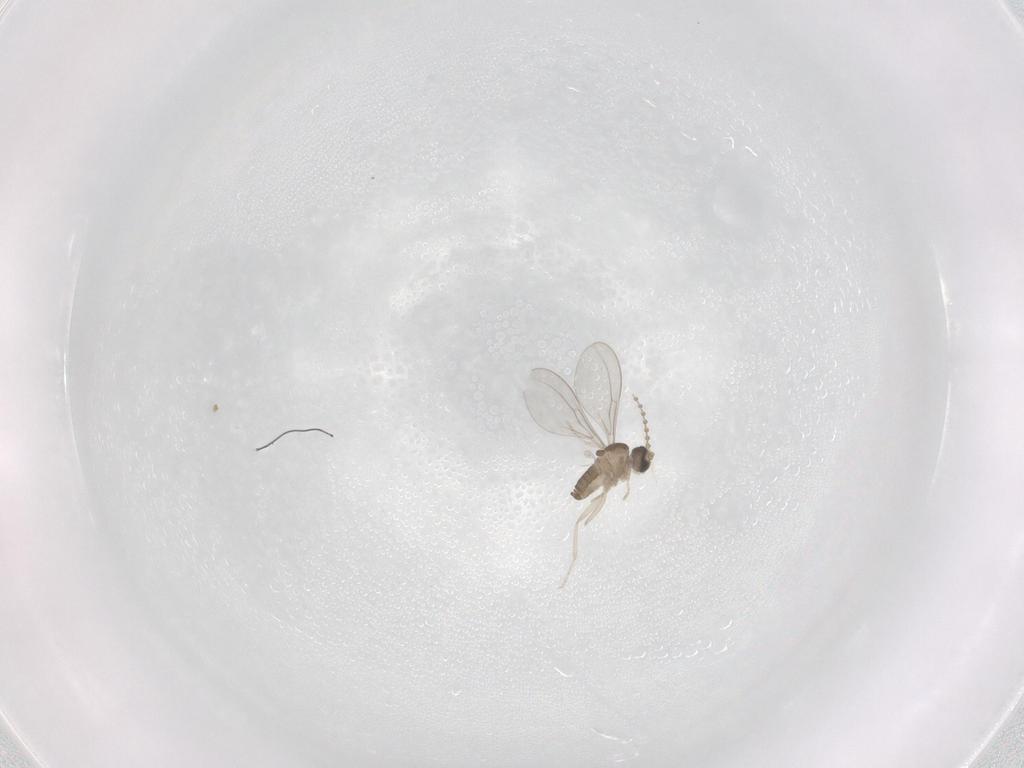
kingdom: Animalia
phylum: Arthropoda
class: Insecta
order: Diptera
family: Cecidomyiidae
